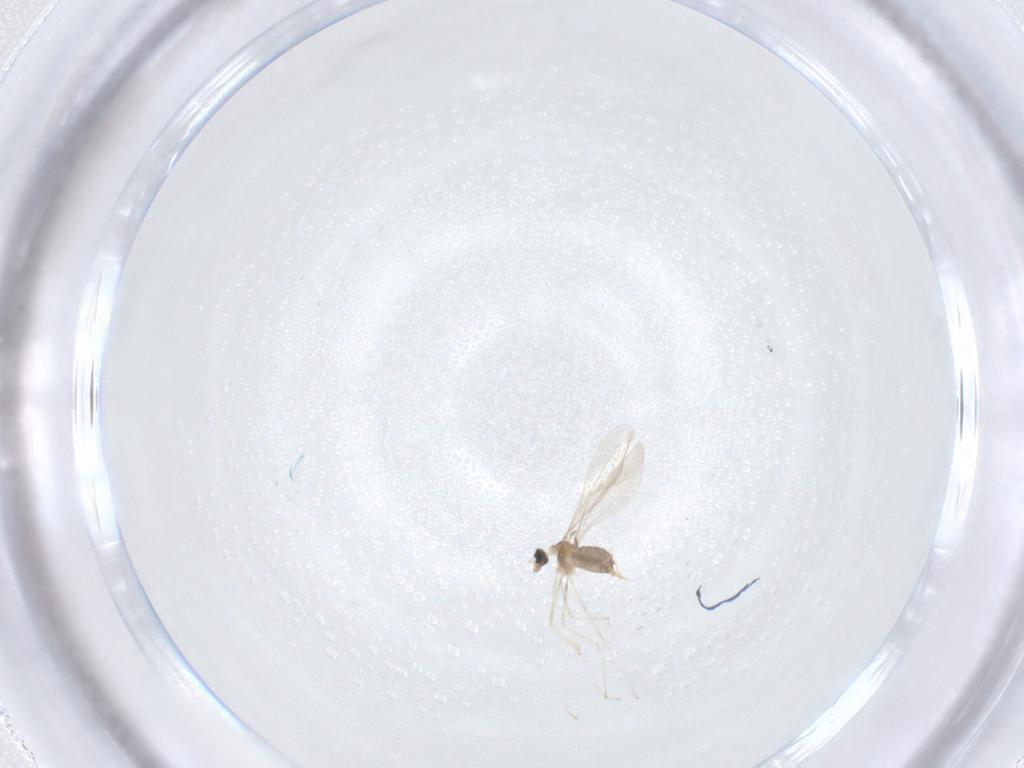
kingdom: Animalia
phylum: Arthropoda
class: Insecta
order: Diptera
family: Cecidomyiidae
